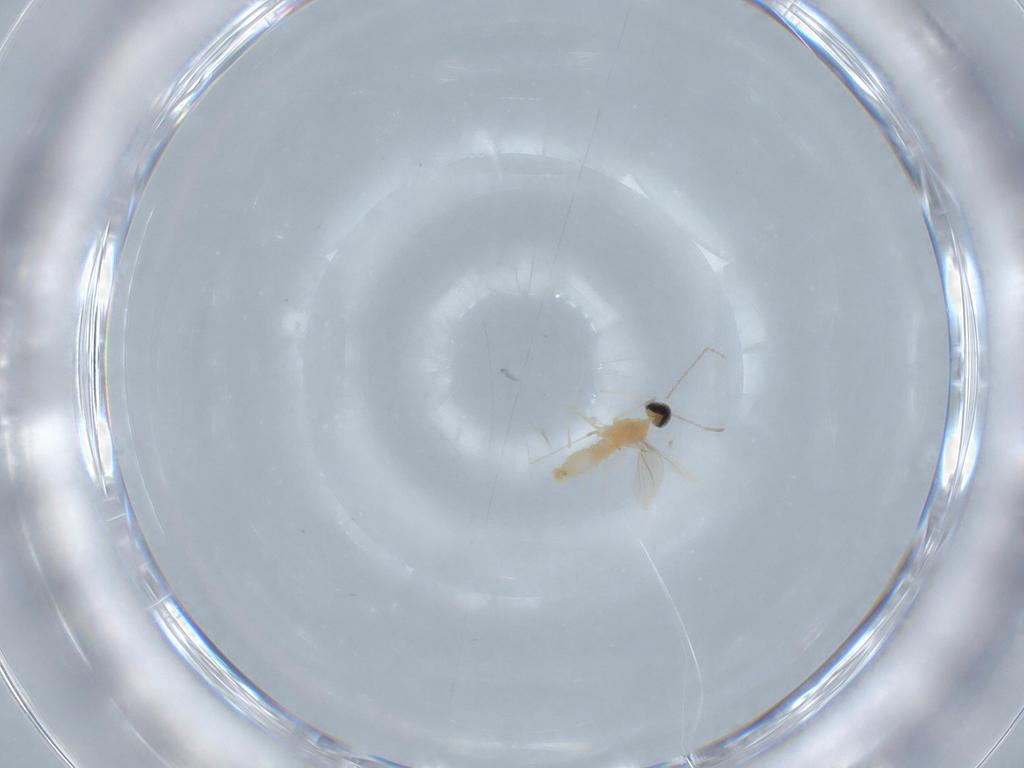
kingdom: Animalia
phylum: Arthropoda
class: Insecta
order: Diptera
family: Cecidomyiidae
